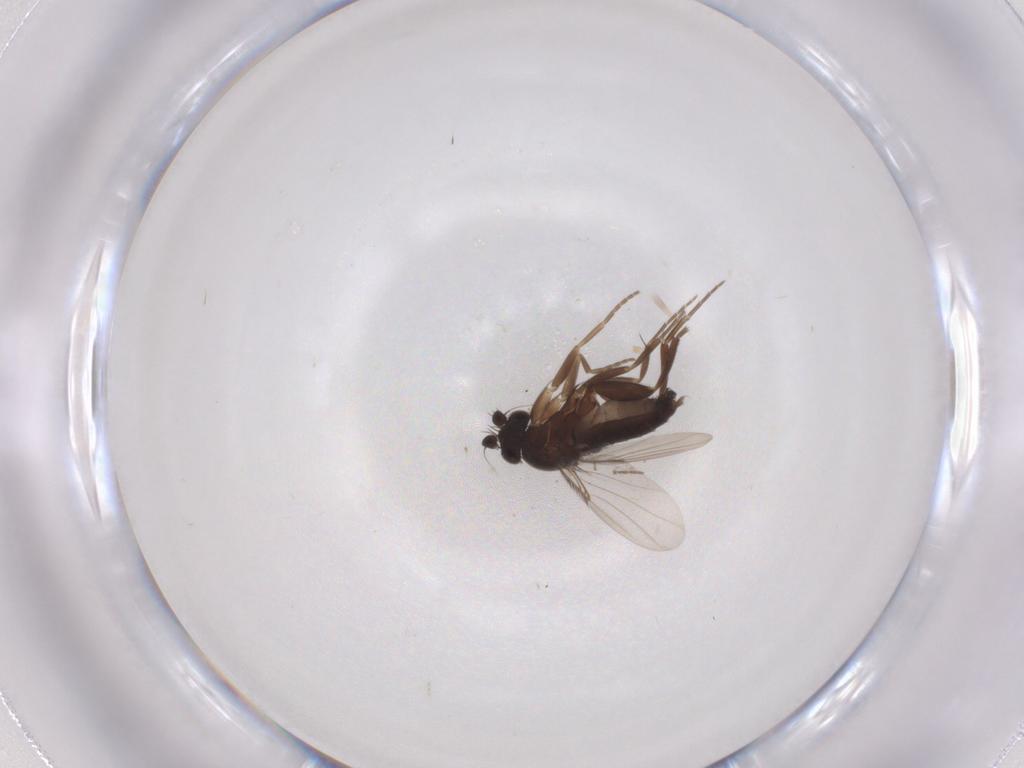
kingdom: Animalia
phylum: Arthropoda
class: Insecta
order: Diptera
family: Phoridae
